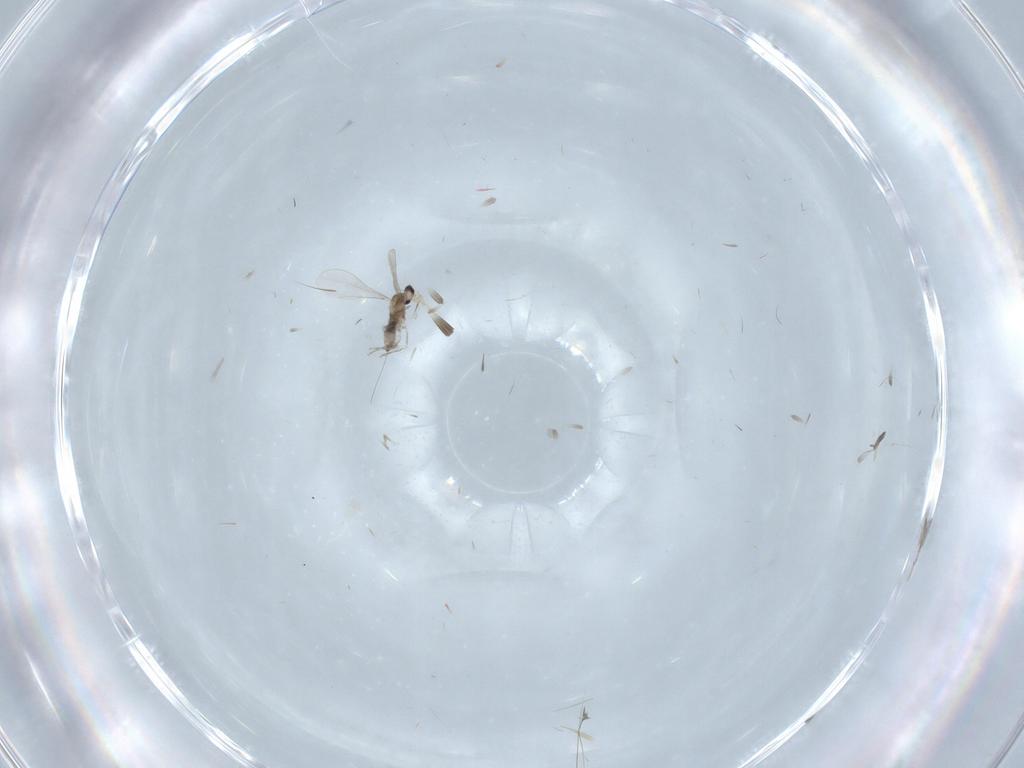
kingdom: Animalia
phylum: Arthropoda
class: Insecta
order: Diptera
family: Cecidomyiidae
